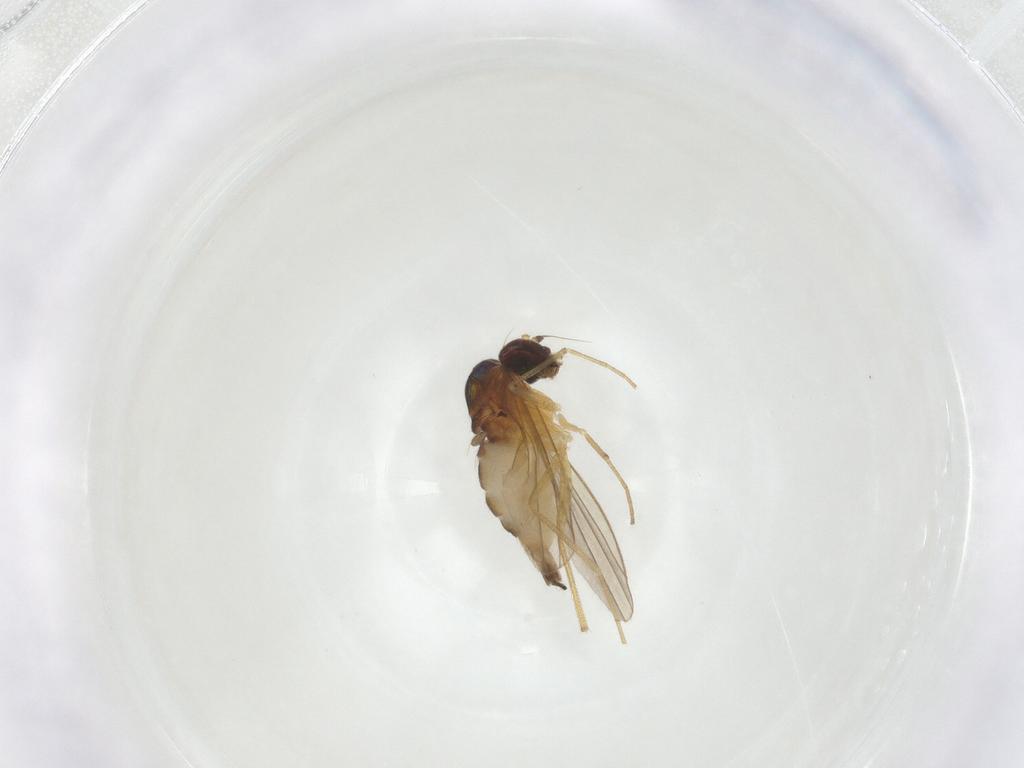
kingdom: Animalia
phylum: Arthropoda
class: Insecta
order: Diptera
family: Dolichopodidae
